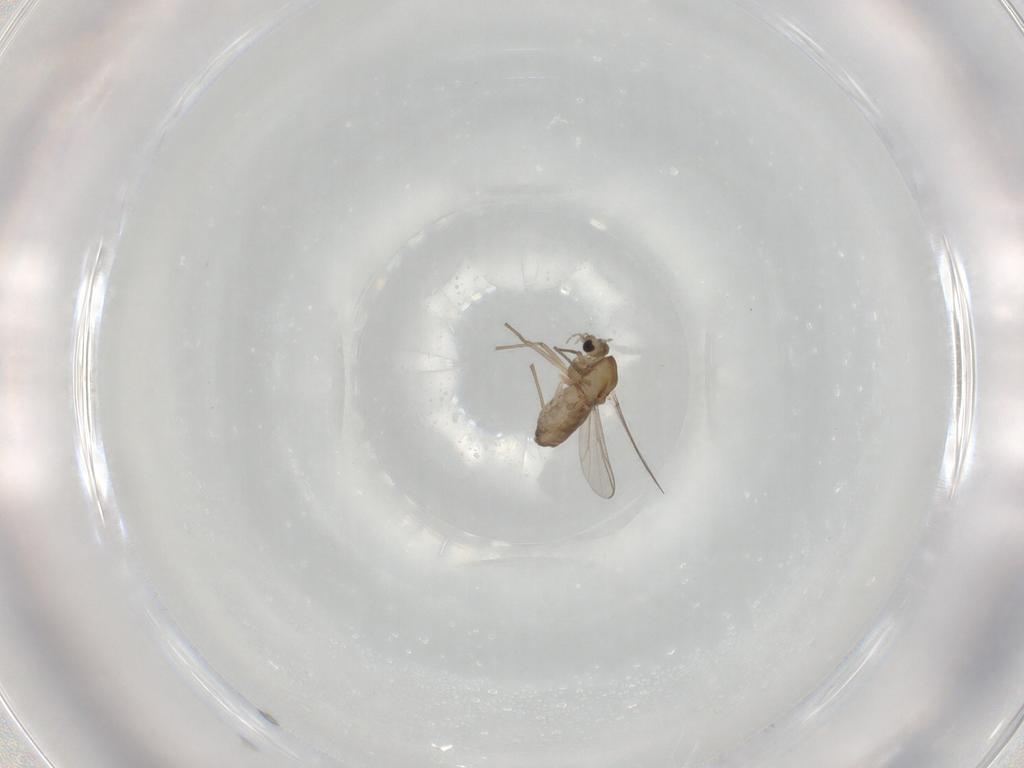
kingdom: Animalia
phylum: Arthropoda
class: Insecta
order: Diptera
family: Chironomidae
